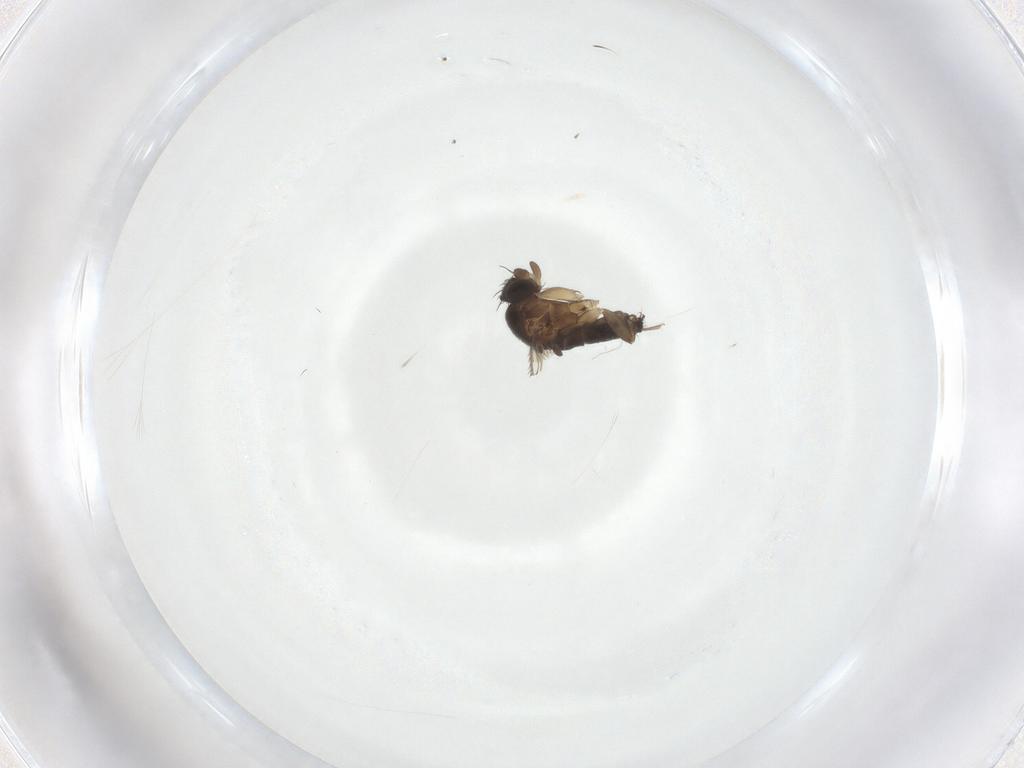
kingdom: Animalia
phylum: Arthropoda
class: Insecta
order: Diptera
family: Phoridae
